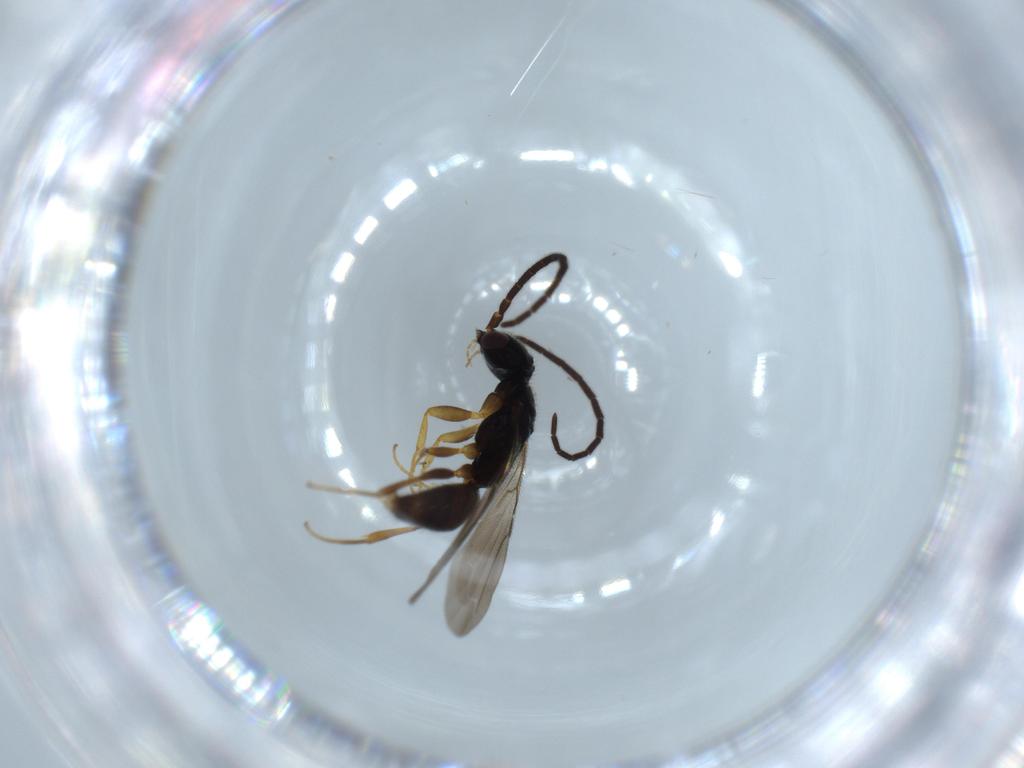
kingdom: Animalia
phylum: Arthropoda
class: Insecta
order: Hymenoptera
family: Bethylidae
